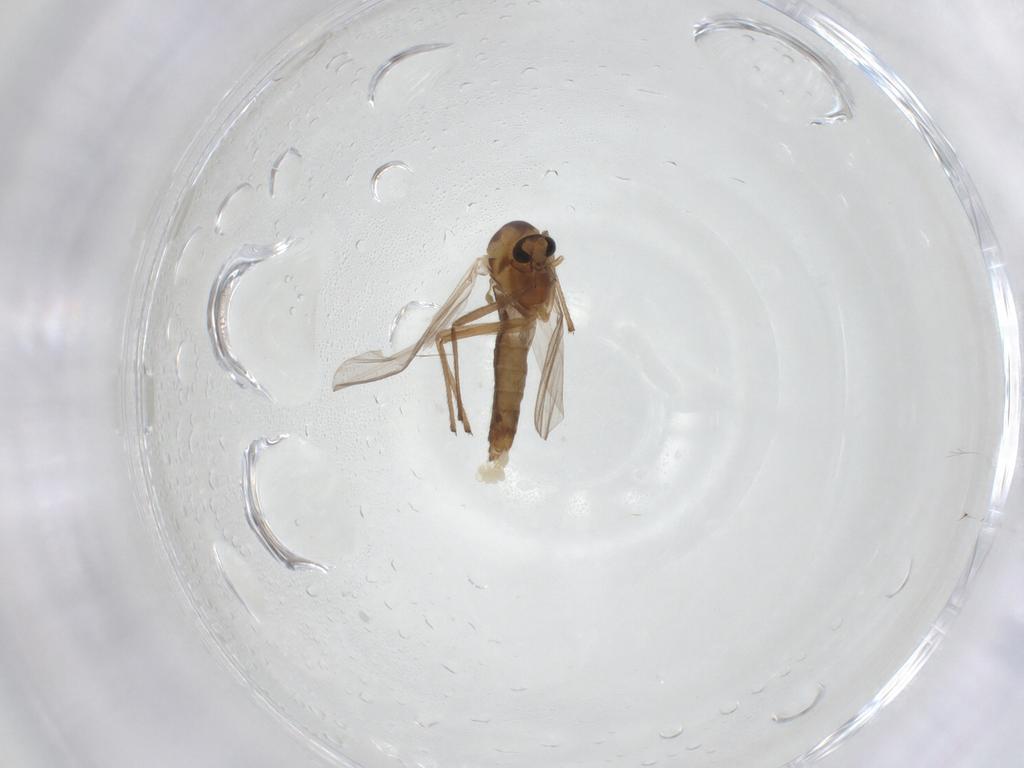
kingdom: Animalia
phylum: Arthropoda
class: Insecta
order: Diptera
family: Chironomidae
